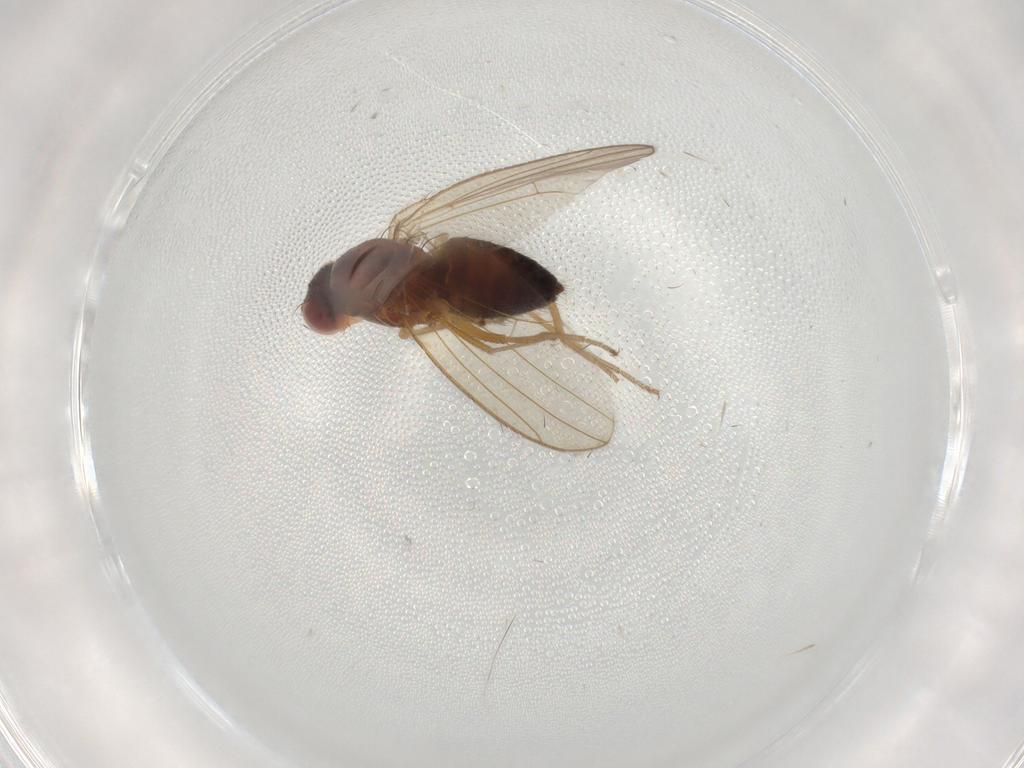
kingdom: Animalia
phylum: Arthropoda
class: Insecta
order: Diptera
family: Drosophilidae
